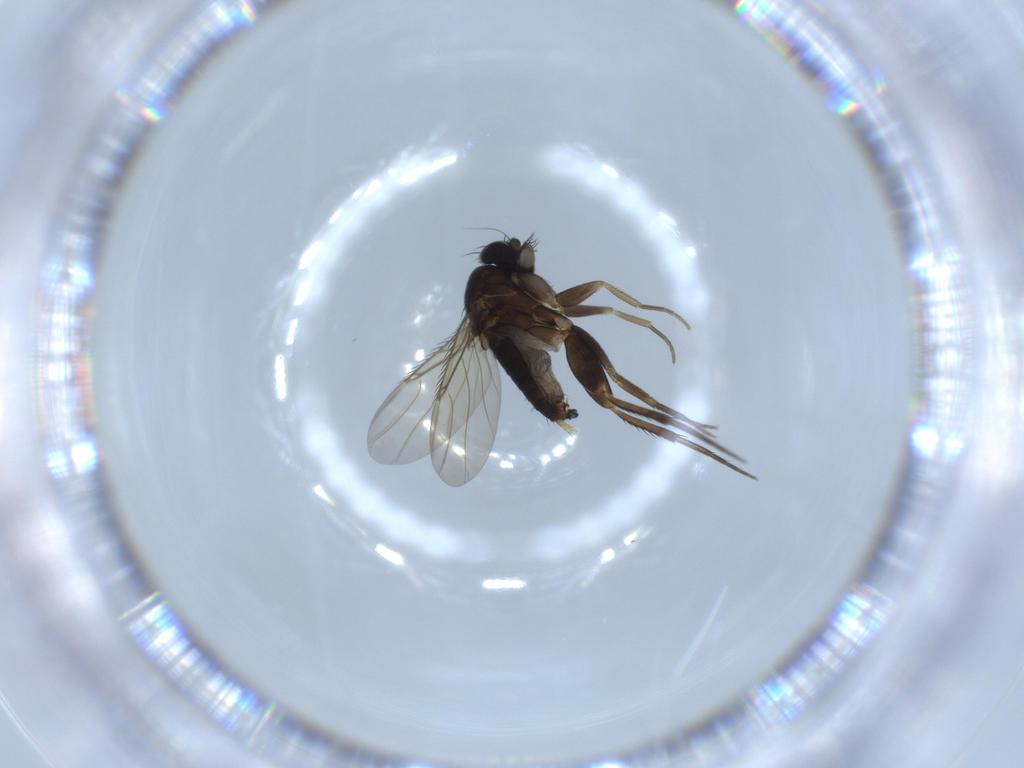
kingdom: Animalia
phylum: Arthropoda
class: Insecta
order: Diptera
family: Phoridae
